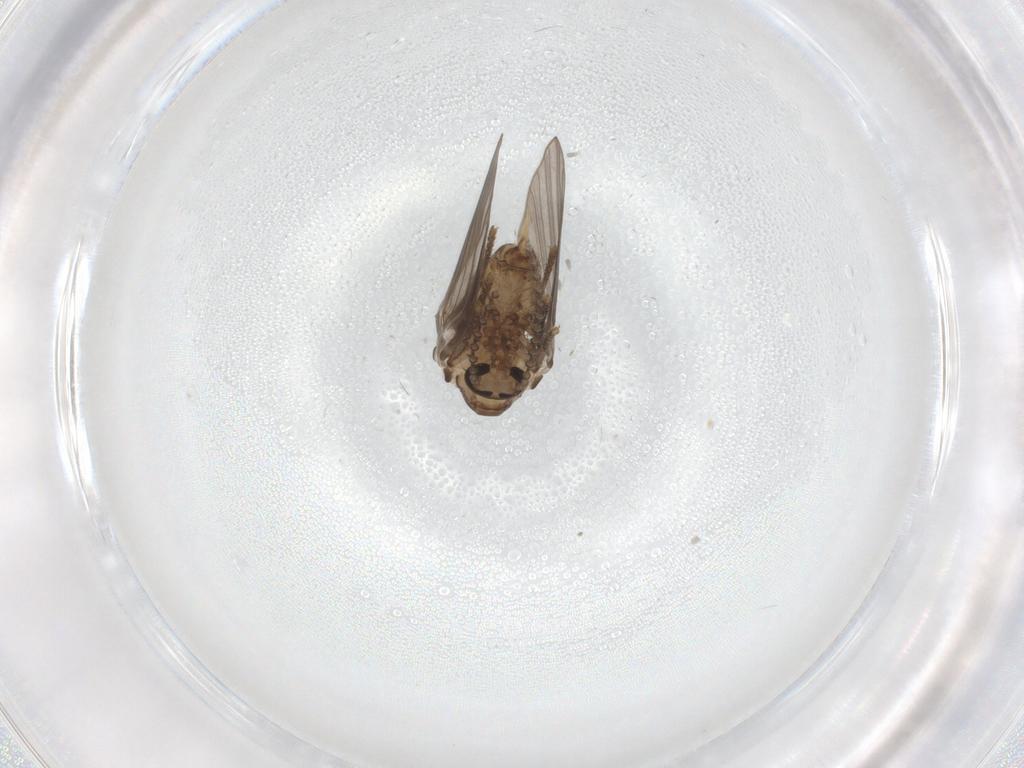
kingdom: Animalia
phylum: Arthropoda
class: Insecta
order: Diptera
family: Psychodidae
